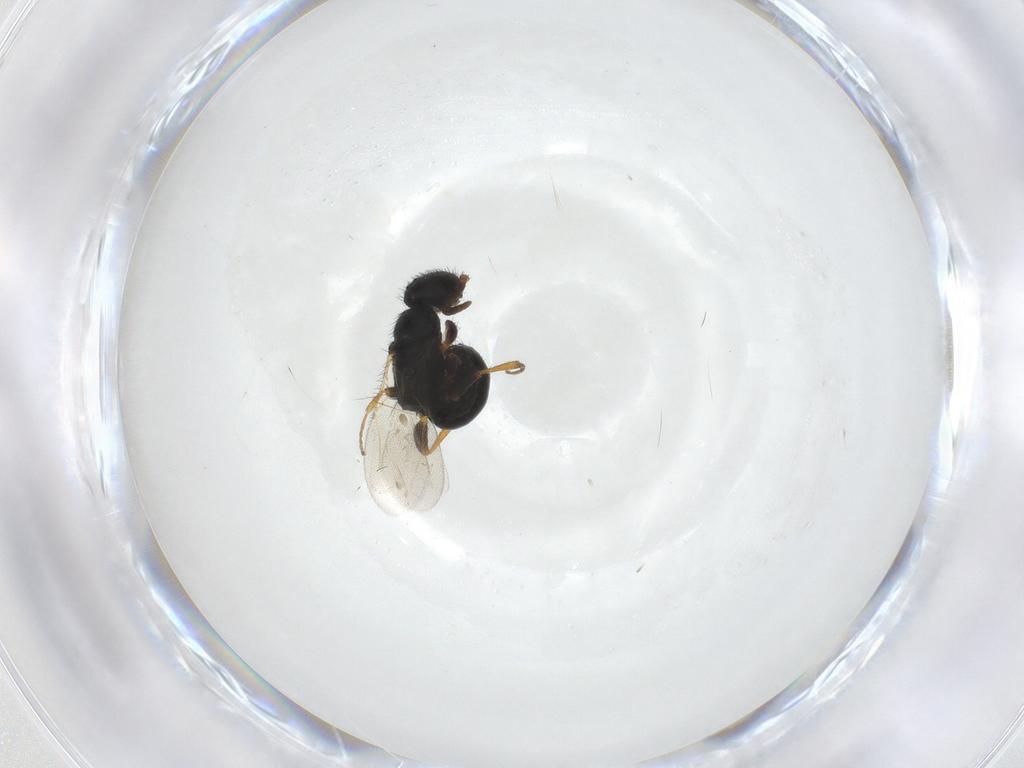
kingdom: Animalia
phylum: Arthropoda
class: Insecta
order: Hymenoptera
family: Bethylidae
